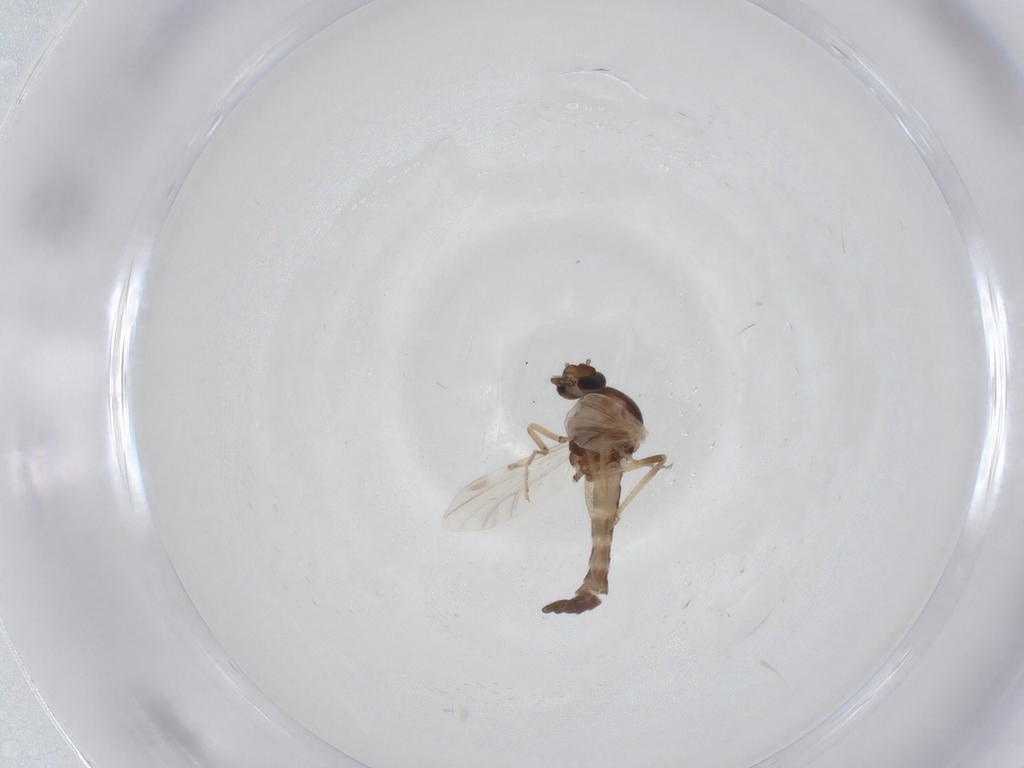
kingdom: Animalia
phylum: Arthropoda
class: Insecta
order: Diptera
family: Ceratopogonidae
